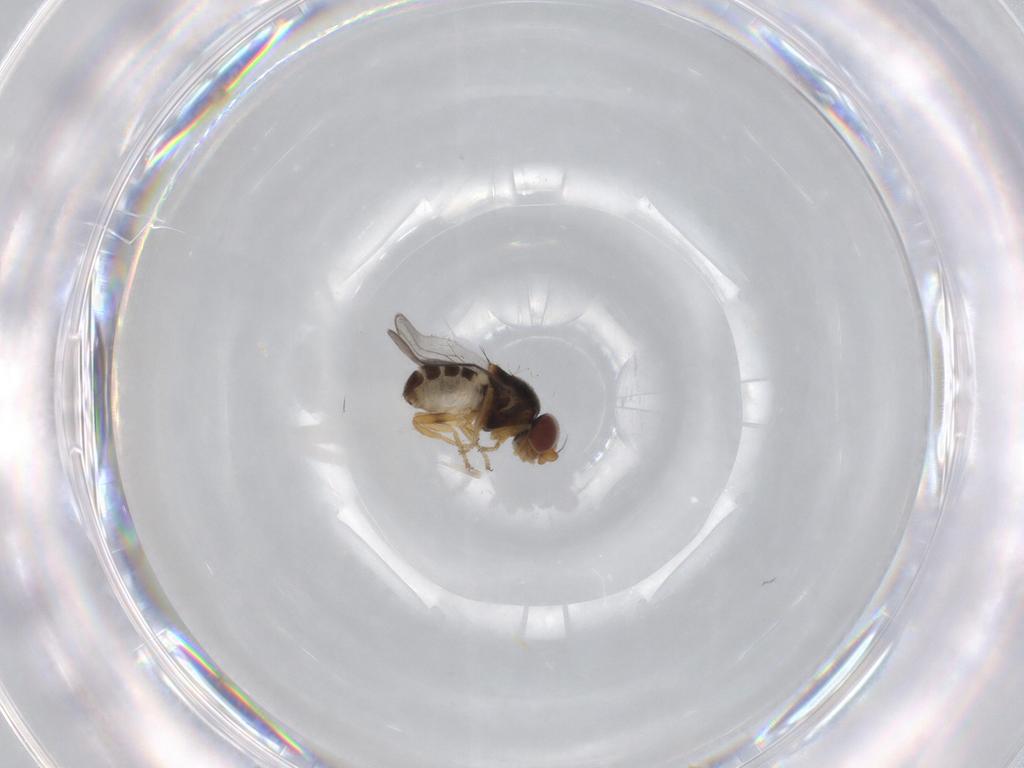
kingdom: Animalia
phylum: Arthropoda
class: Insecta
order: Diptera
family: Chloropidae
